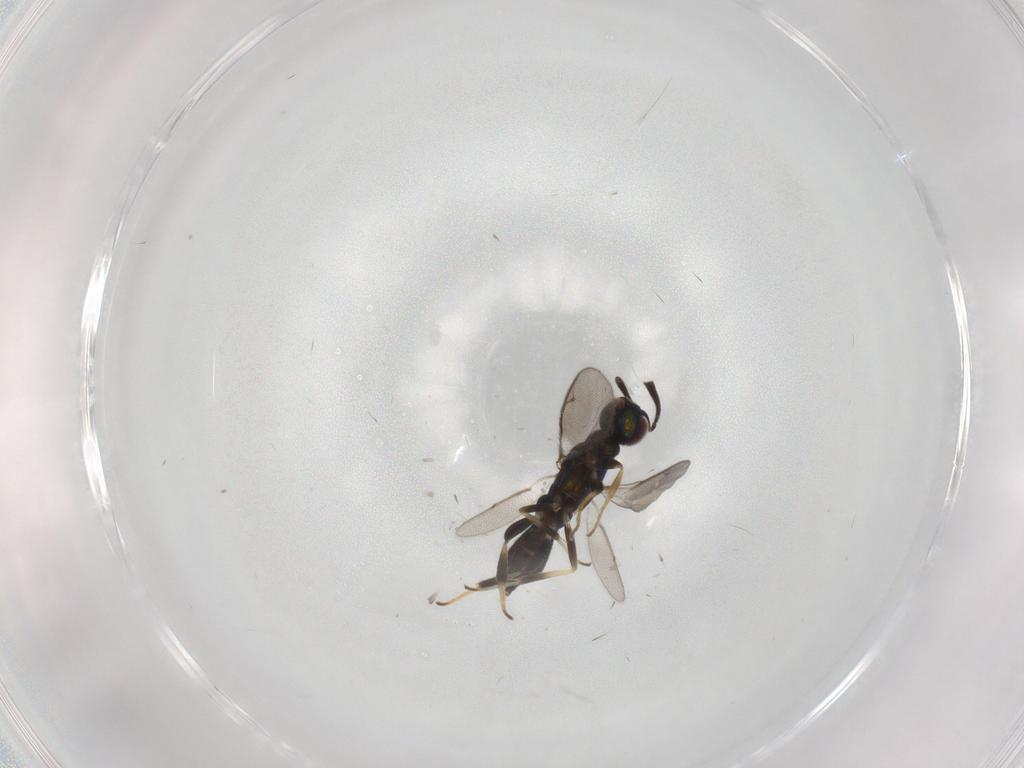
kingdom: Animalia
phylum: Arthropoda
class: Insecta
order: Hymenoptera
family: Eupelmidae
